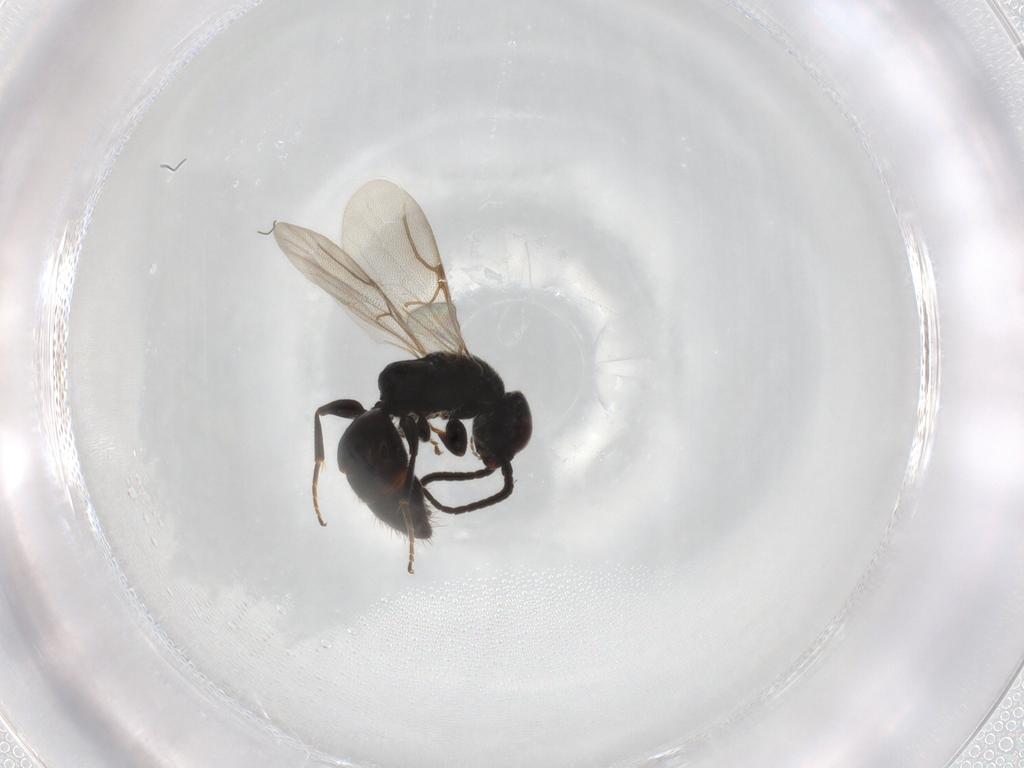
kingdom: Animalia
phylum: Arthropoda
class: Insecta
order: Hymenoptera
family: Bethylidae
